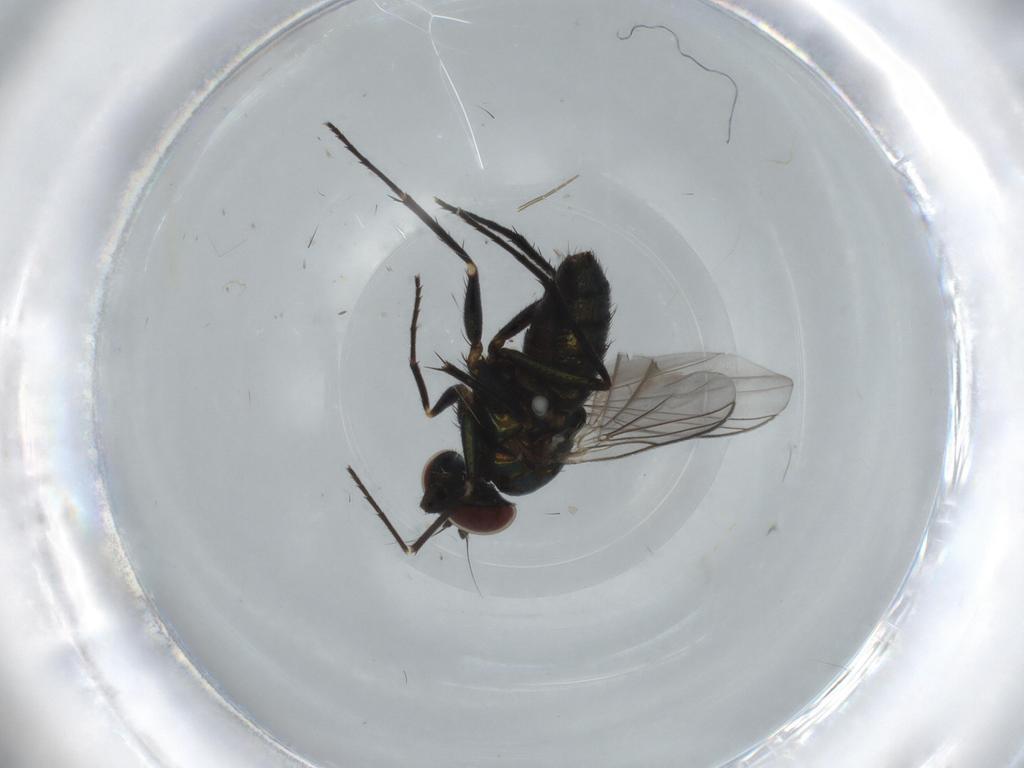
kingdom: Animalia
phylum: Arthropoda
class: Insecta
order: Diptera
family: Dolichopodidae
